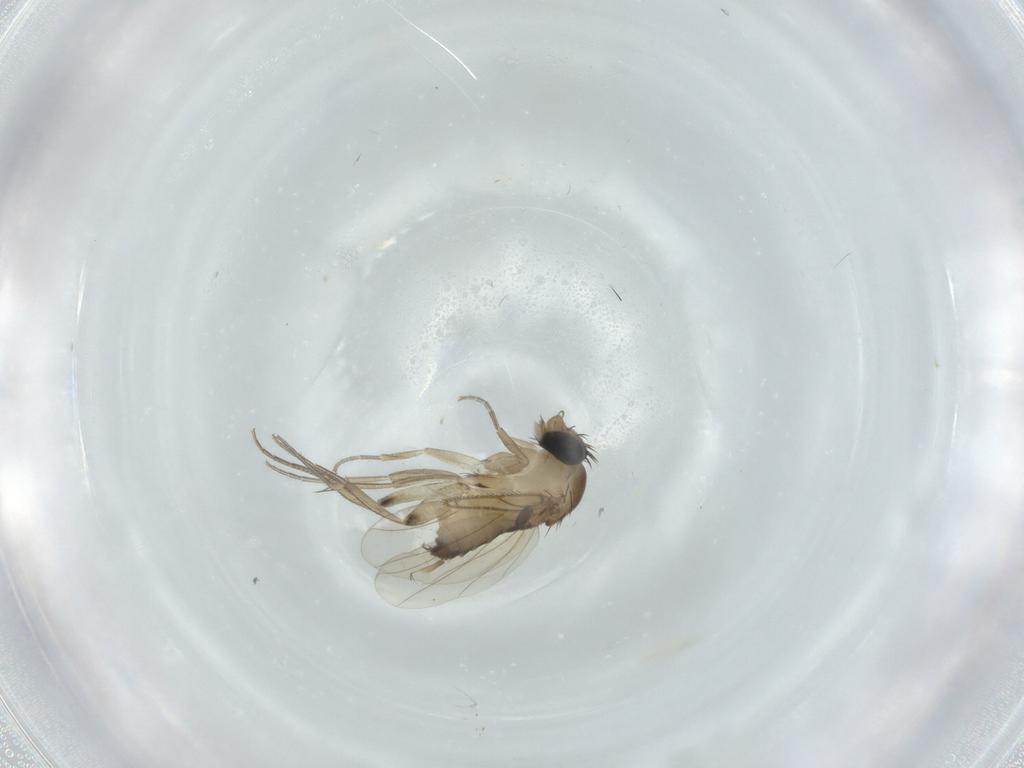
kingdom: Animalia
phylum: Arthropoda
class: Insecta
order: Diptera
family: Phoridae
